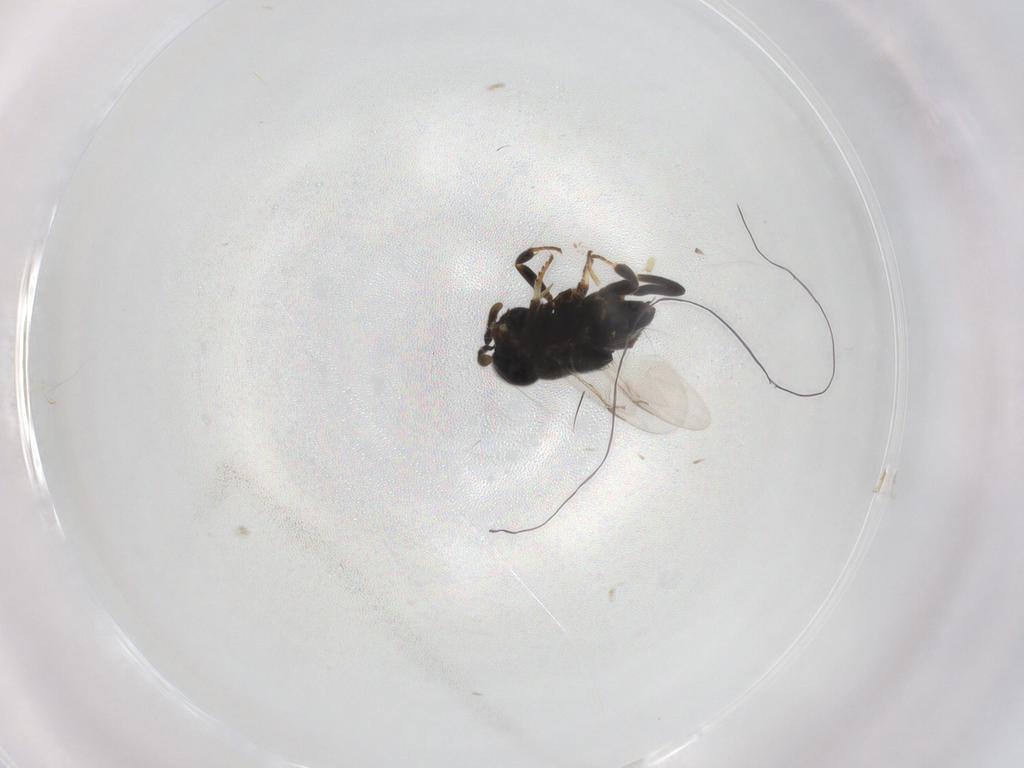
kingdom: Animalia
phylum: Arthropoda
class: Insecta
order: Hymenoptera
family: Encyrtidae
